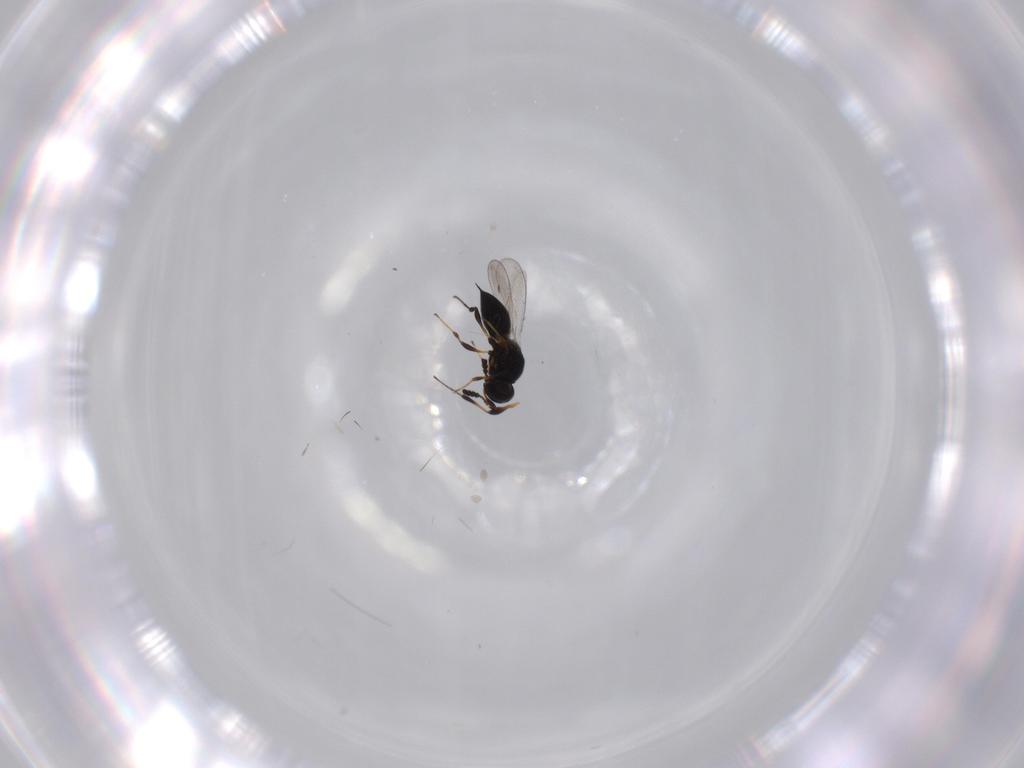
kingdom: Animalia
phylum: Arthropoda
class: Insecta
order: Hymenoptera
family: Platygastridae
